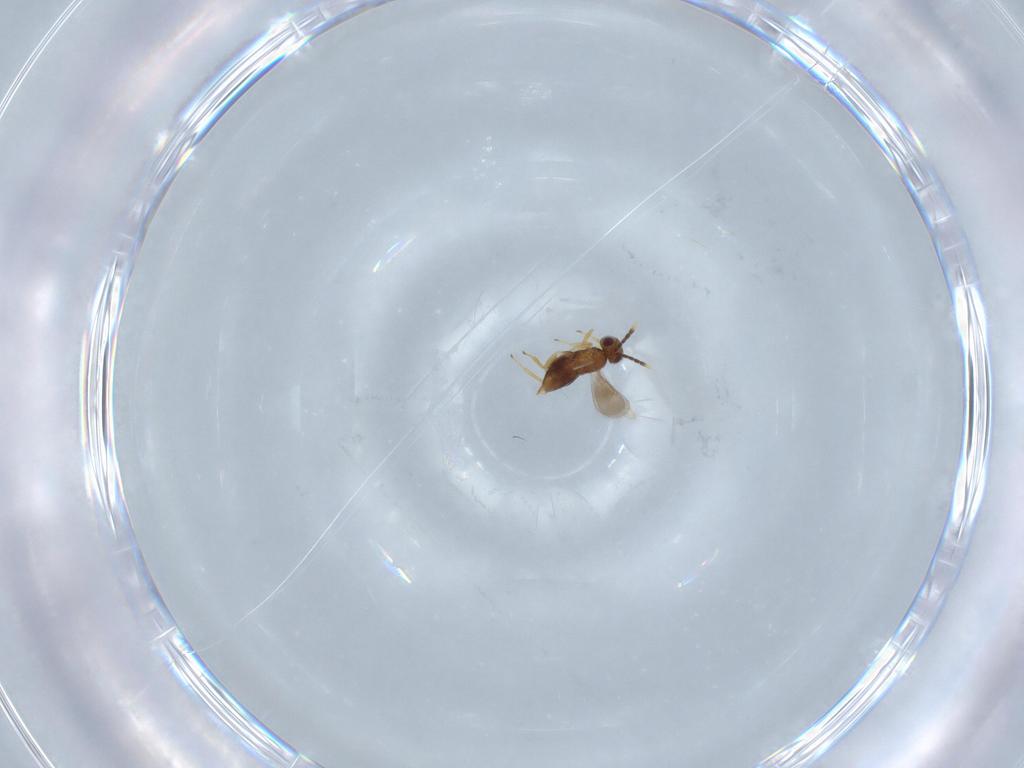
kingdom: Animalia
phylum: Arthropoda
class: Insecta
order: Hymenoptera
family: Aphelinidae
